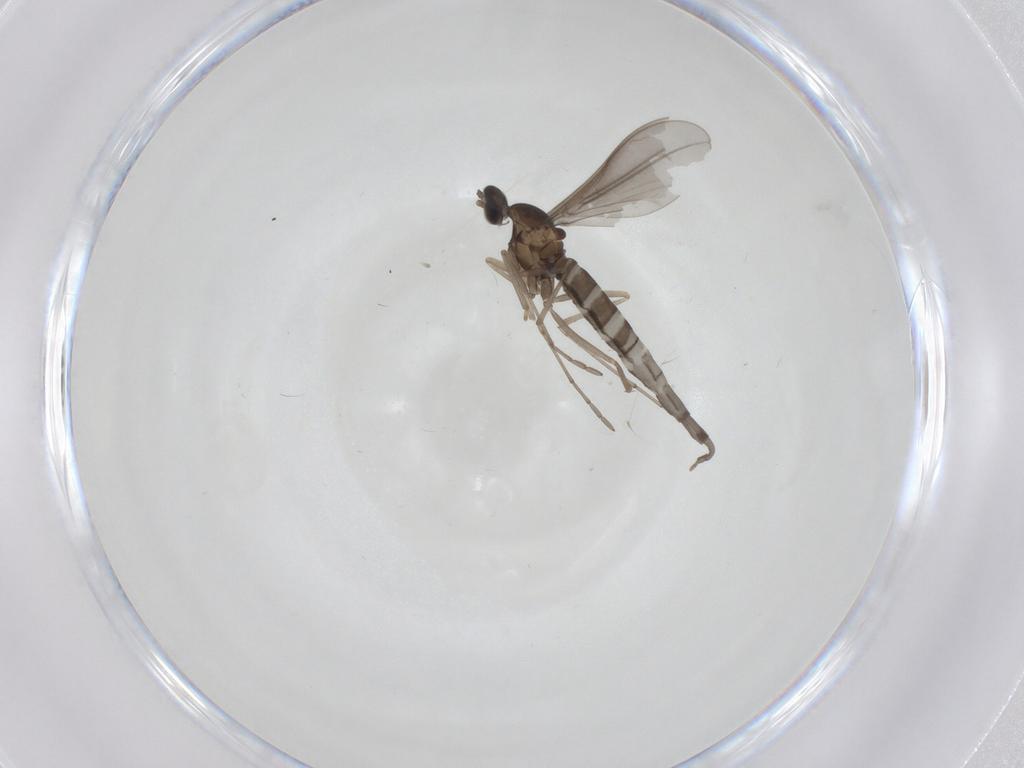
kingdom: Animalia
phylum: Arthropoda
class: Insecta
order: Diptera
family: Cecidomyiidae
